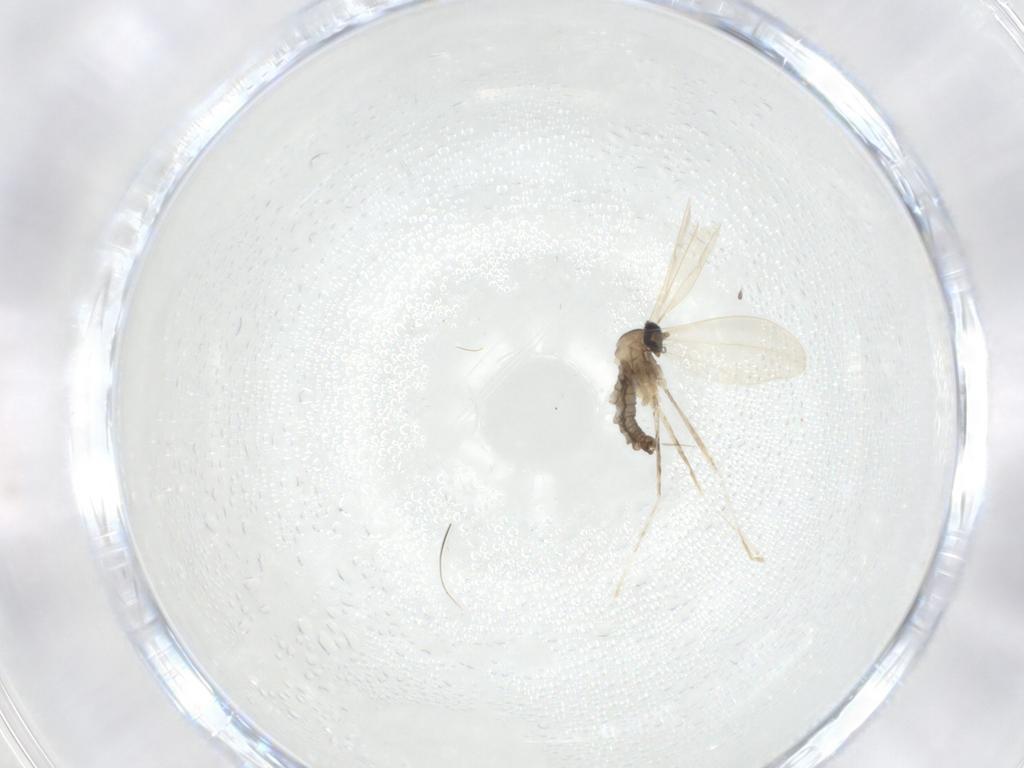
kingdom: Animalia
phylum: Arthropoda
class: Insecta
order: Diptera
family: Cecidomyiidae
